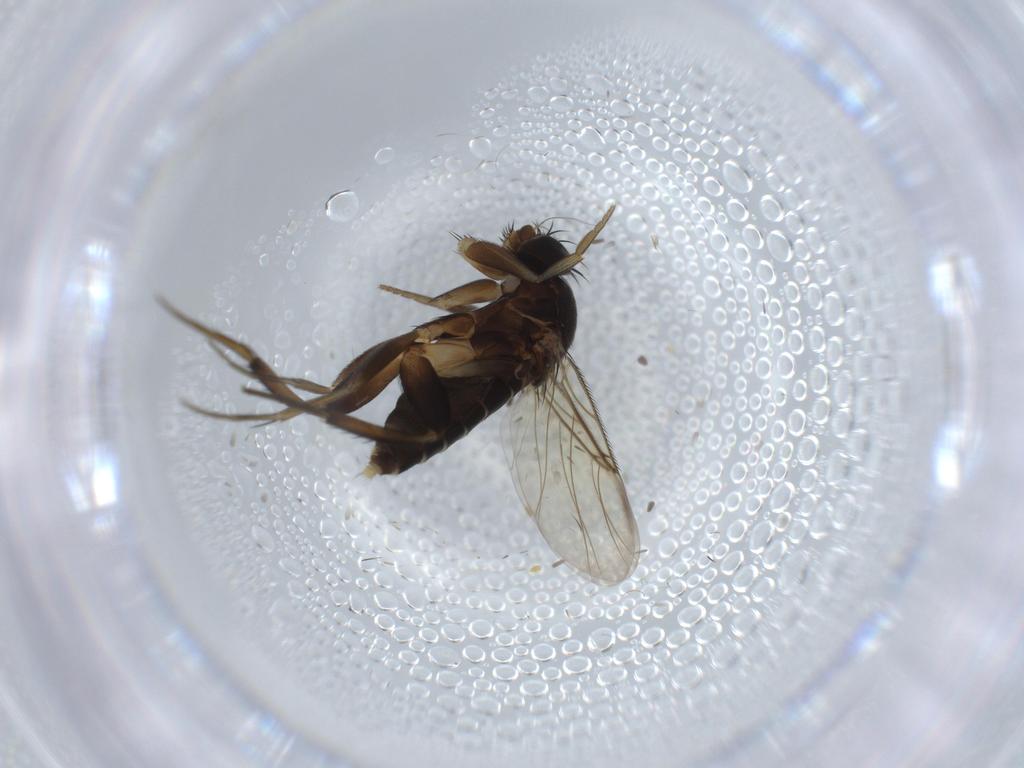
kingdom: Animalia
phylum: Arthropoda
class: Insecta
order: Diptera
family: Phoridae
